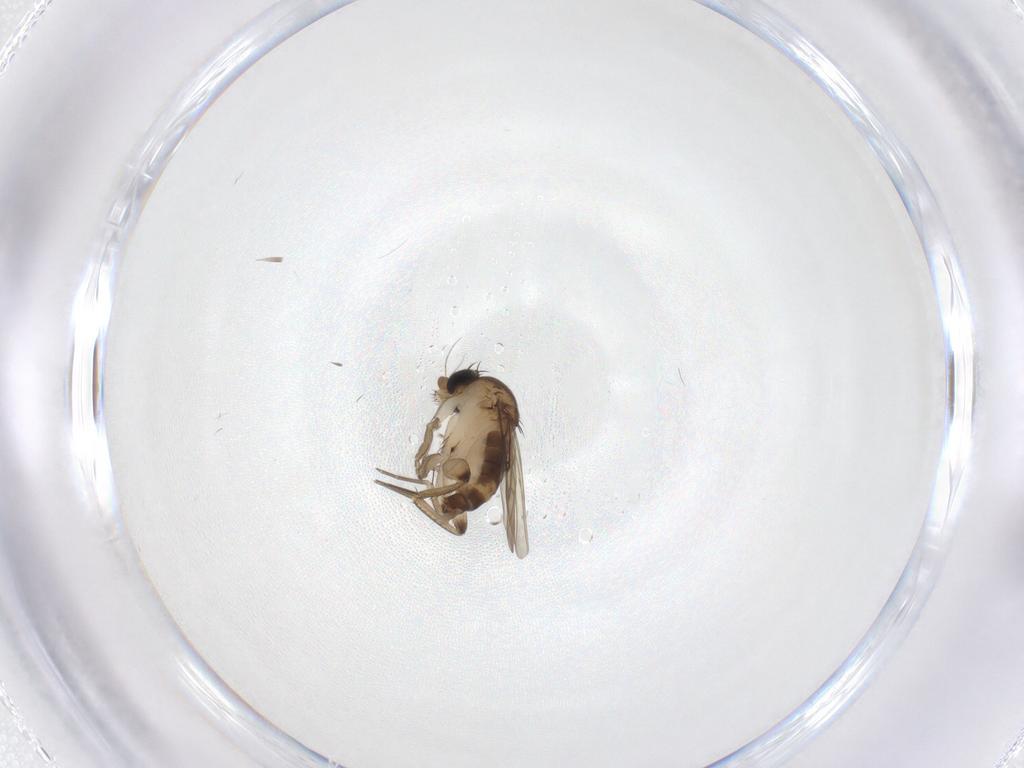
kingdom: Animalia
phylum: Arthropoda
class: Insecta
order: Diptera
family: Phoridae
